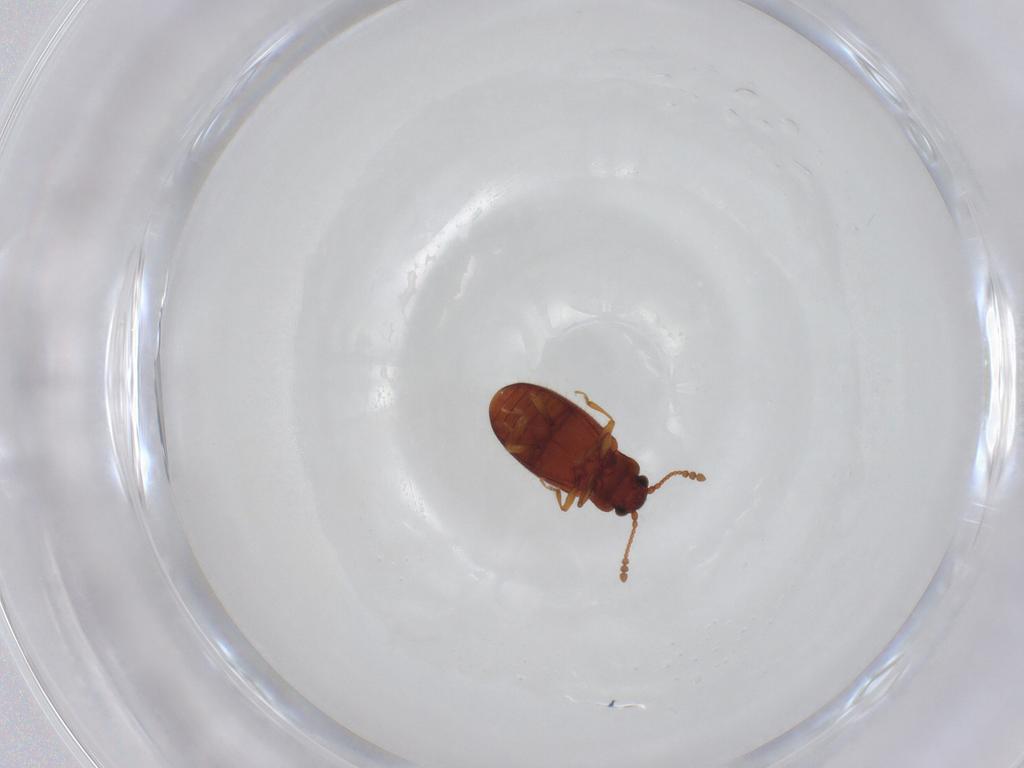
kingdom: Animalia
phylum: Arthropoda
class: Insecta
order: Coleoptera
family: Cryptophagidae
